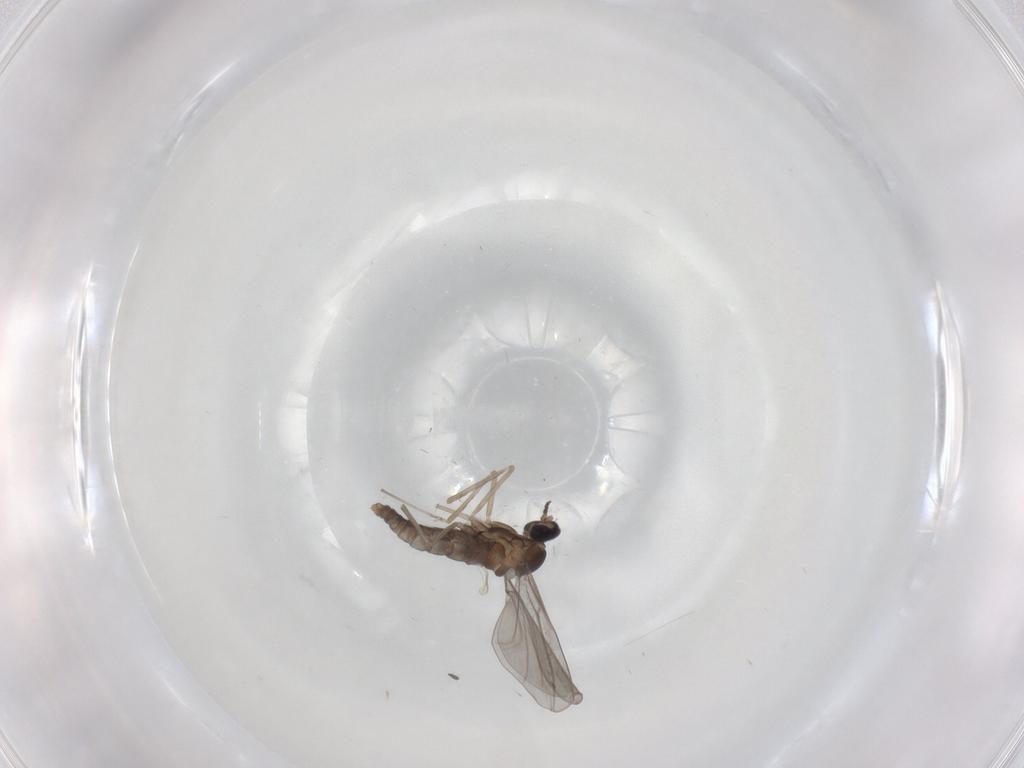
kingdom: Animalia
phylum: Arthropoda
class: Insecta
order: Diptera
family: Cecidomyiidae
